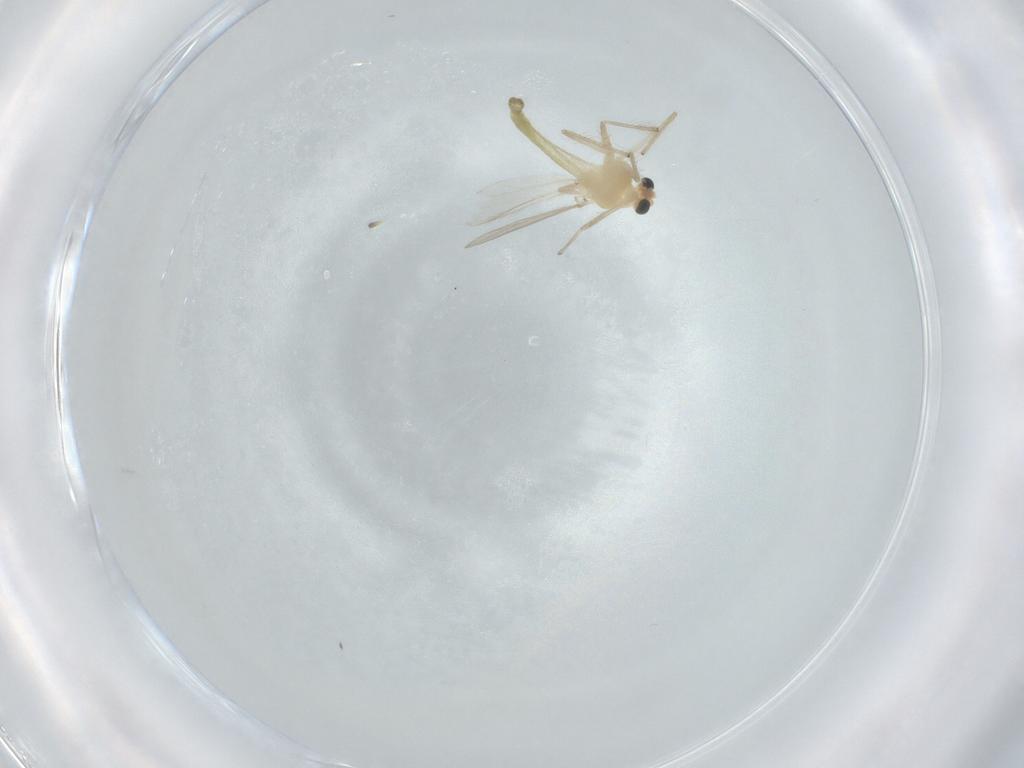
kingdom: Animalia
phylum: Arthropoda
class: Insecta
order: Diptera
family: Chironomidae
